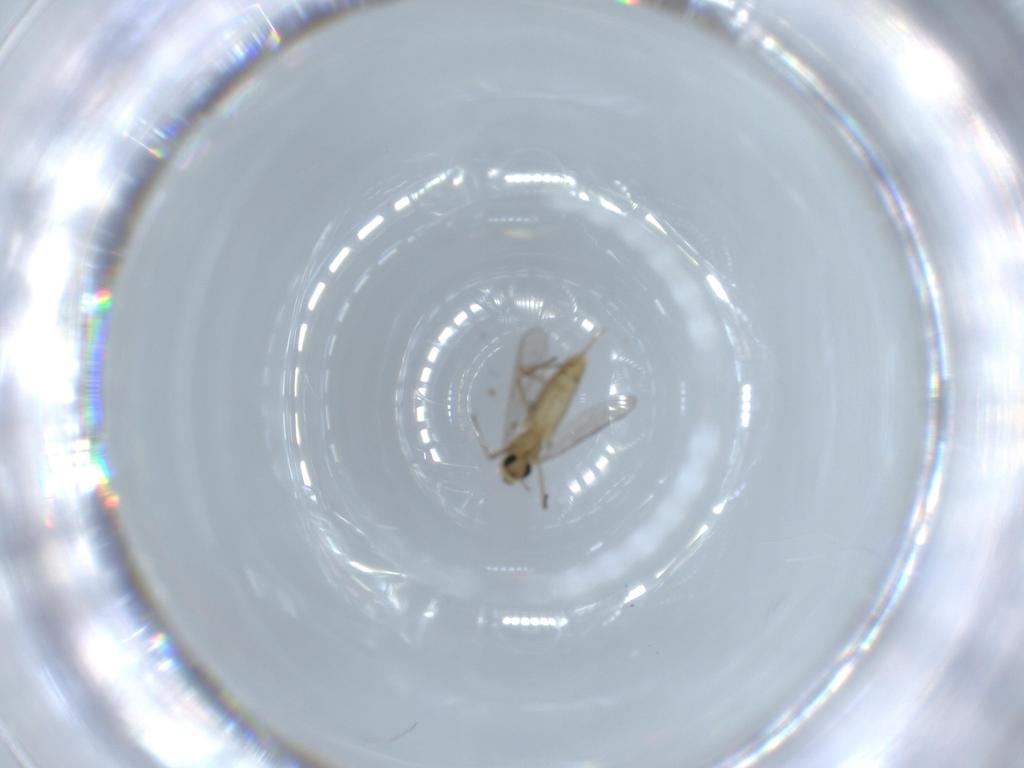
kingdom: Animalia
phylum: Arthropoda
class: Insecta
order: Diptera
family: Chironomidae
